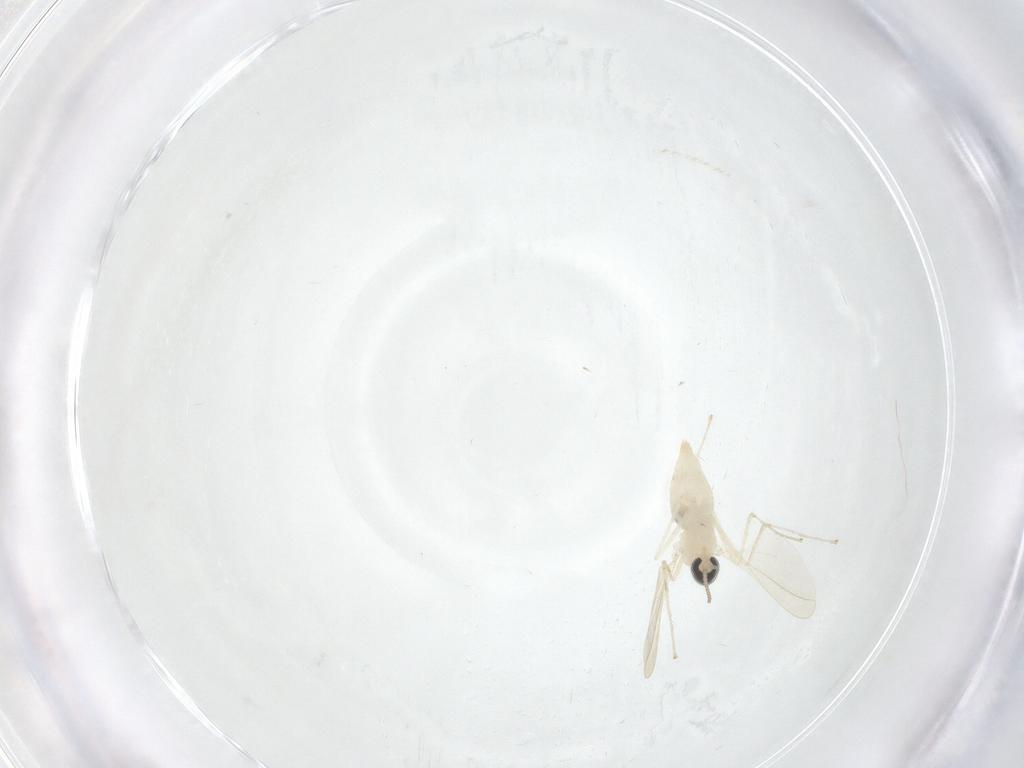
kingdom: Animalia
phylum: Arthropoda
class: Insecta
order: Diptera
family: Cecidomyiidae
